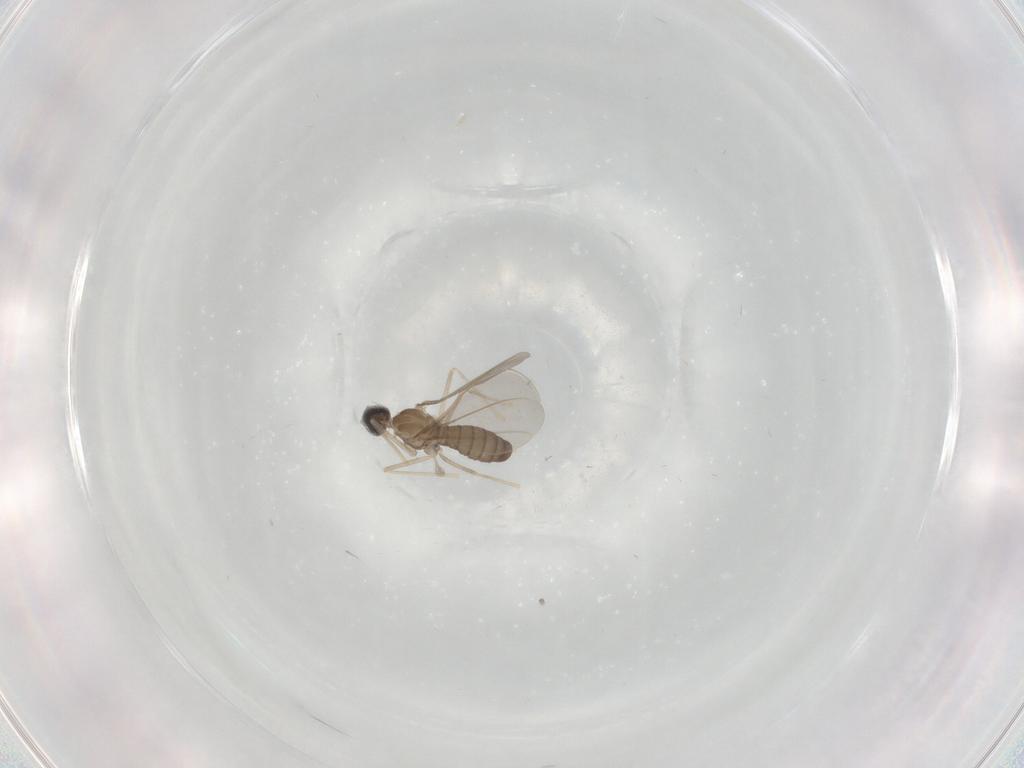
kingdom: Animalia
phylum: Arthropoda
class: Insecta
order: Diptera
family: Cecidomyiidae
